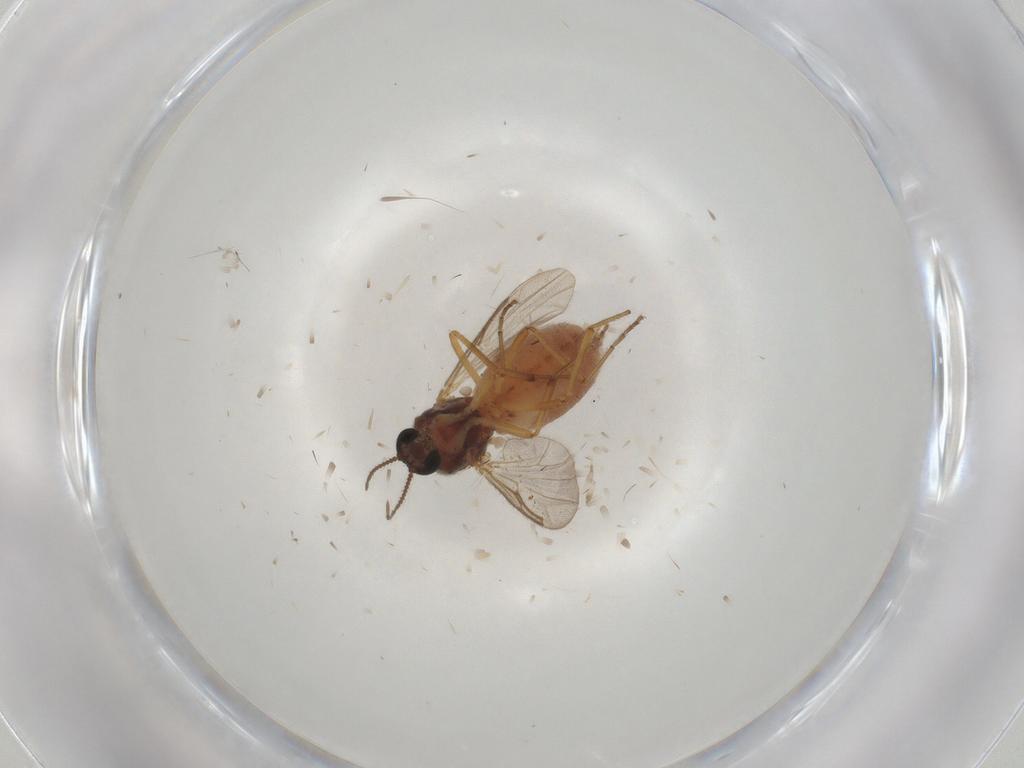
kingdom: Animalia
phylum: Arthropoda
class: Insecta
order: Diptera
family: Ceratopogonidae
